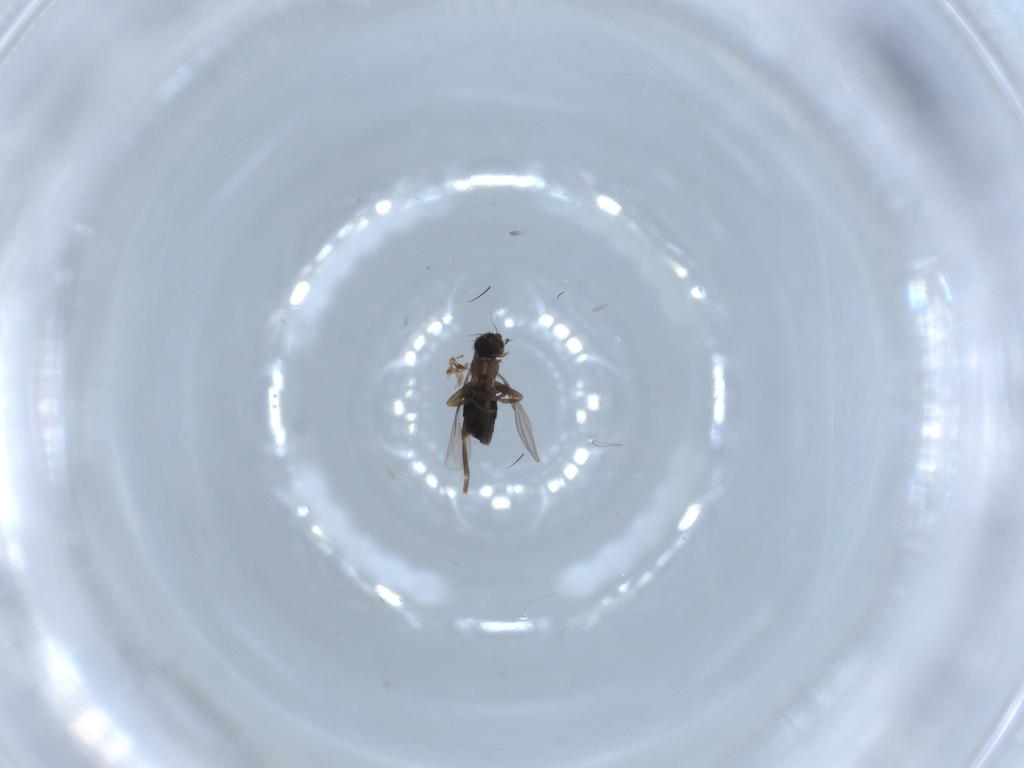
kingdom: Animalia
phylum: Arthropoda
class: Insecta
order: Diptera
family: Phoridae
